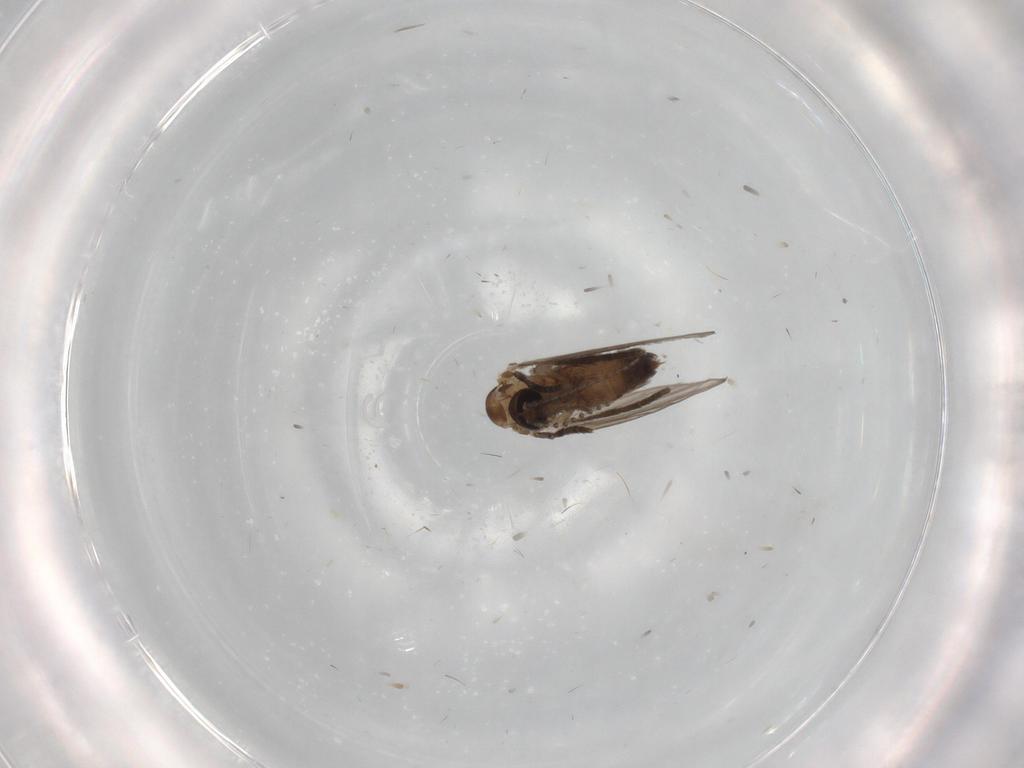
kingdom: Animalia
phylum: Arthropoda
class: Insecta
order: Diptera
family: Psychodidae
